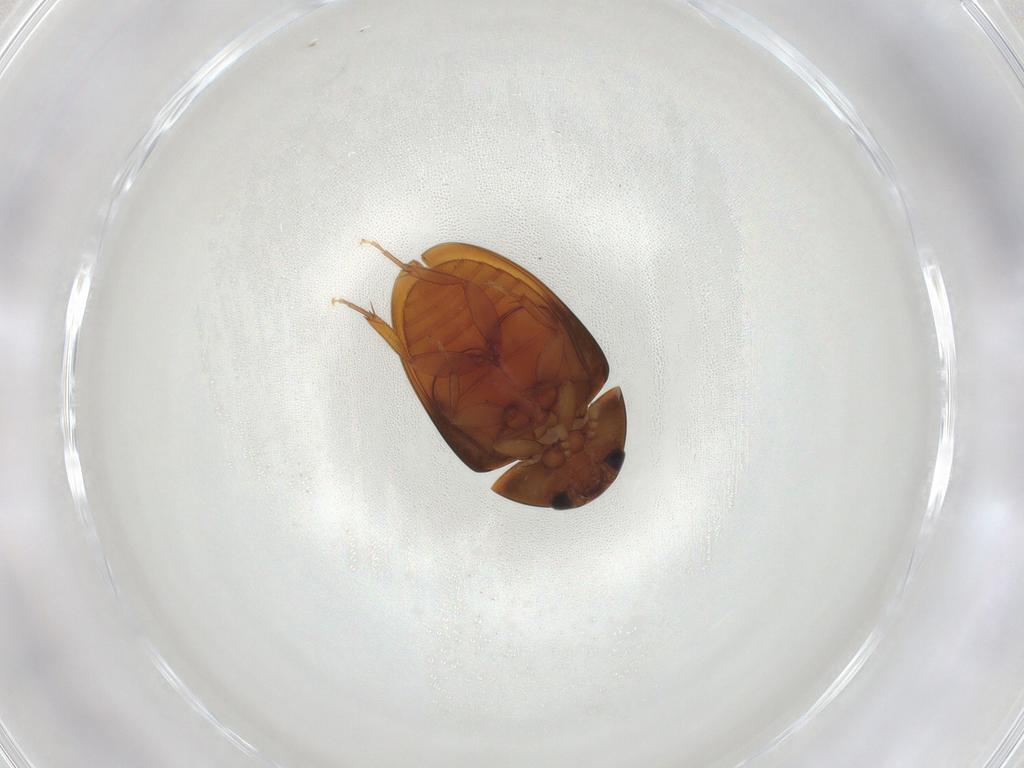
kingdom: Animalia
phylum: Arthropoda
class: Insecta
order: Coleoptera
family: Phalacridae
